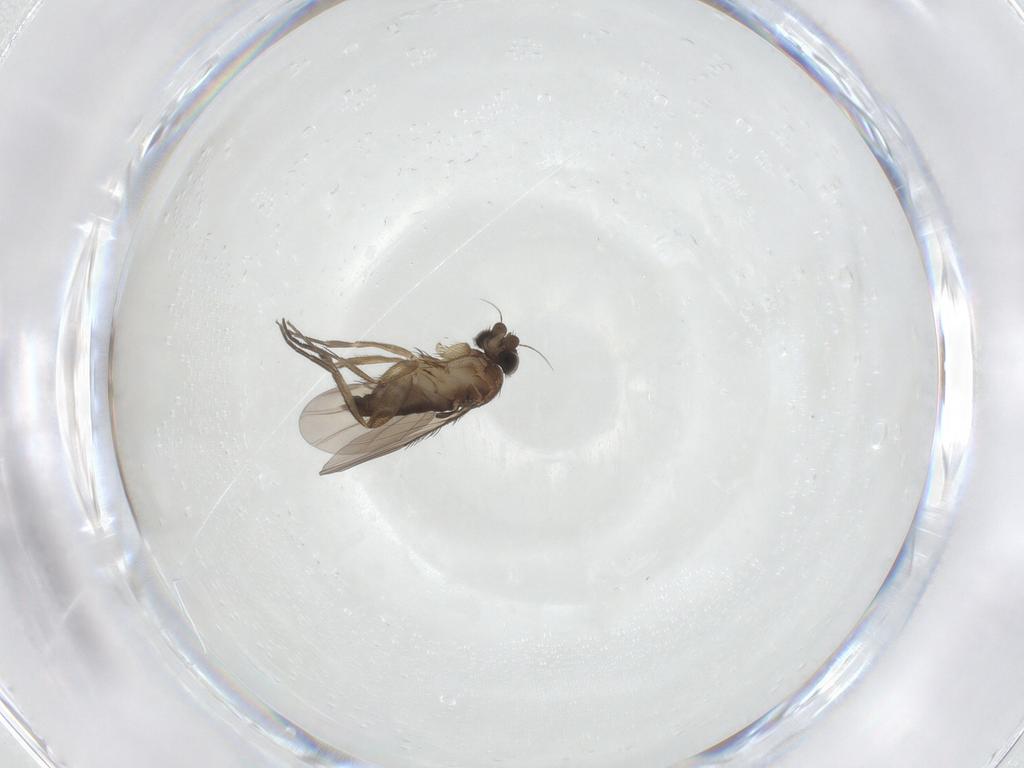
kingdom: Animalia
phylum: Arthropoda
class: Insecta
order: Diptera
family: Phoridae
